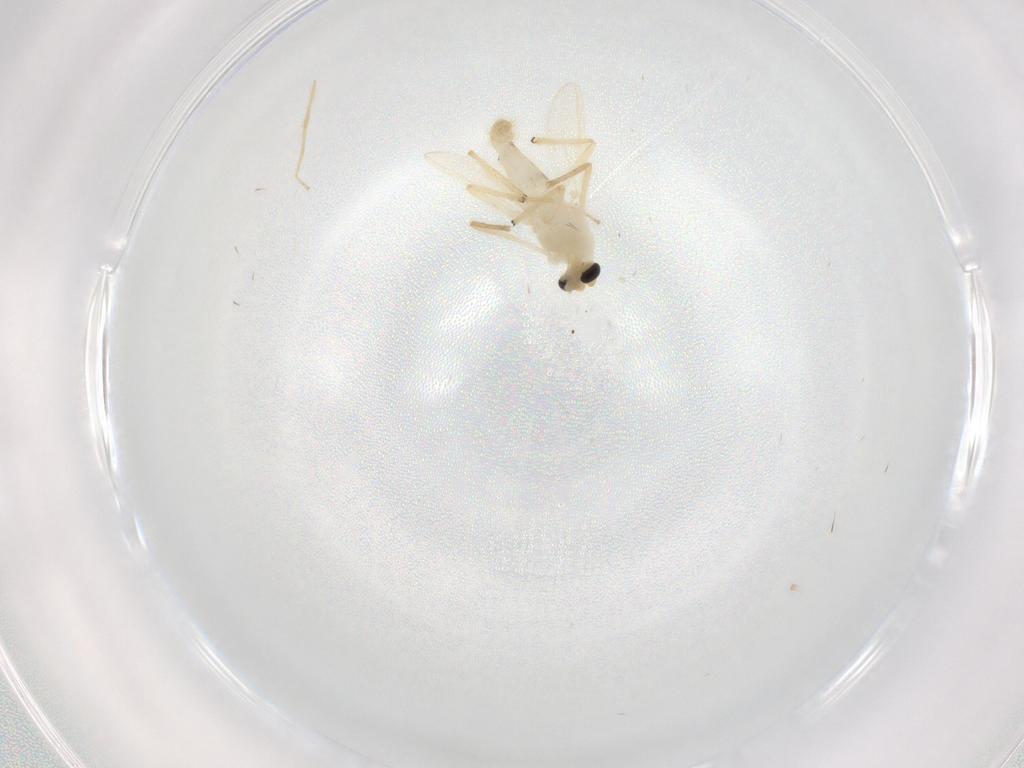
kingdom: Animalia
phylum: Arthropoda
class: Insecta
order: Diptera
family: Chironomidae
